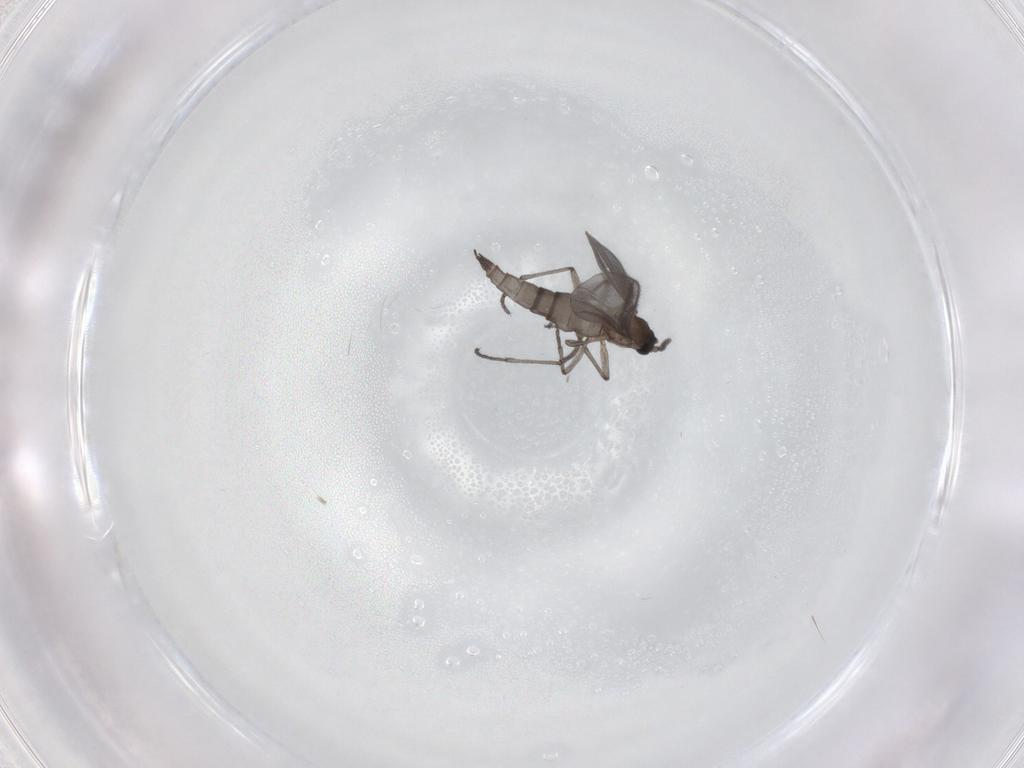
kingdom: Animalia
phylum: Arthropoda
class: Insecta
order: Diptera
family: Sciaridae
